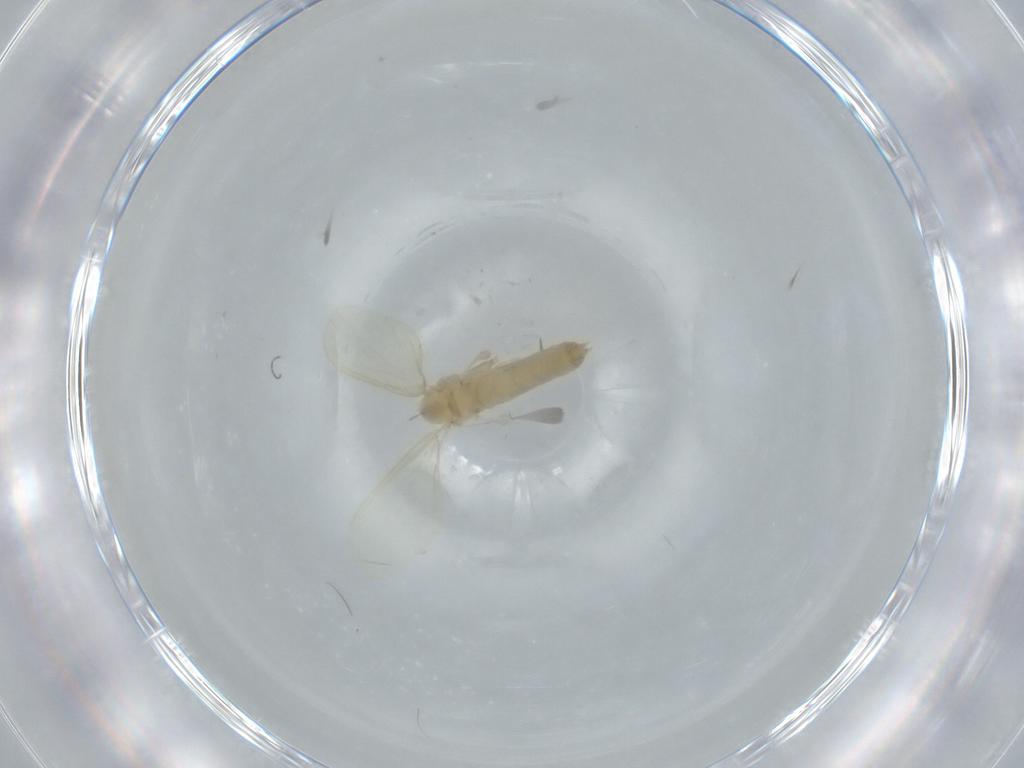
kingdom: Animalia
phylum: Arthropoda
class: Insecta
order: Diptera
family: Psychodidae
